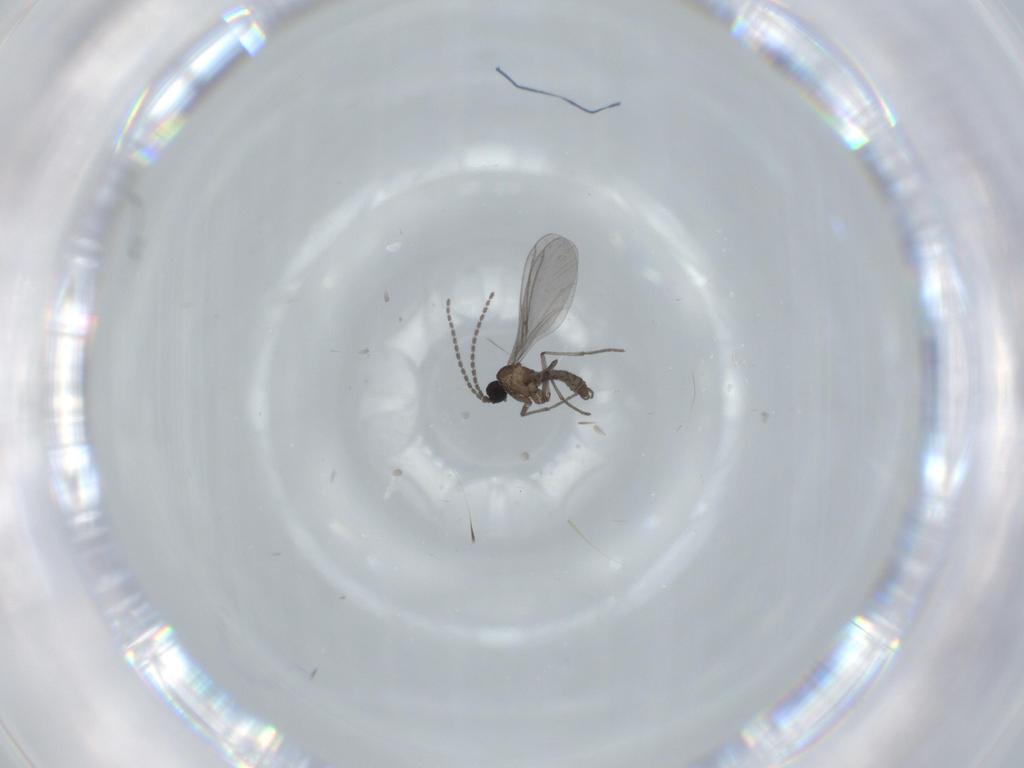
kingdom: Animalia
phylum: Arthropoda
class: Insecta
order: Diptera
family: Sciaridae
